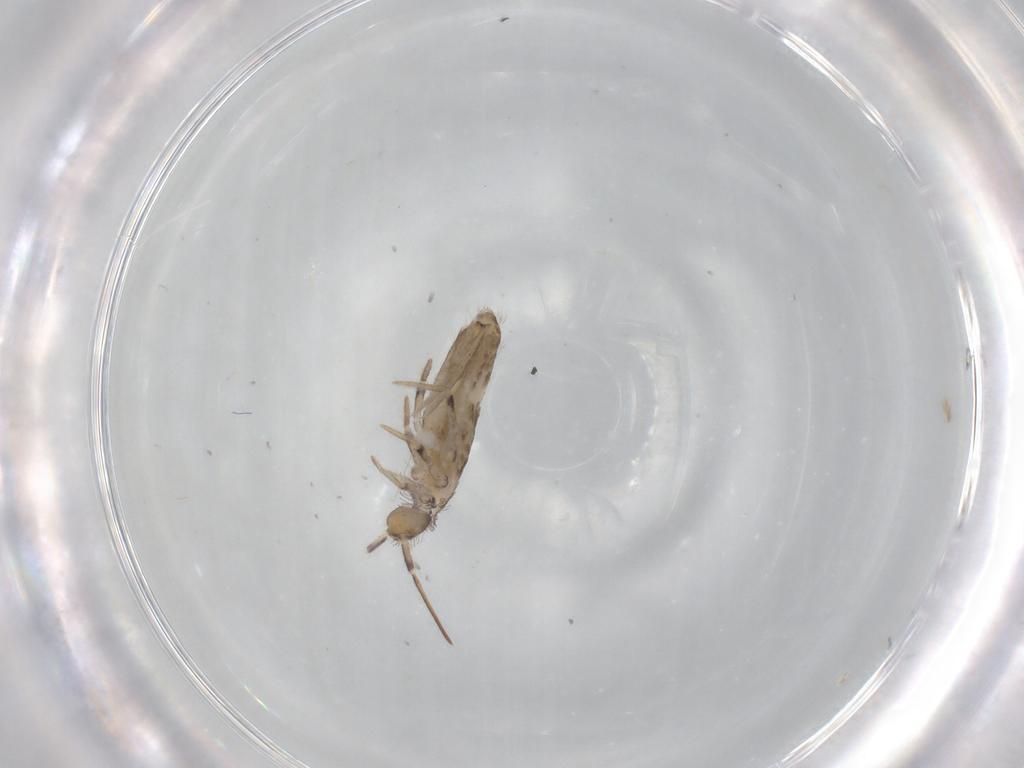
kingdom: Animalia
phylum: Arthropoda
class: Collembola
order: Entomobryomorpha
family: Entomobryidae
